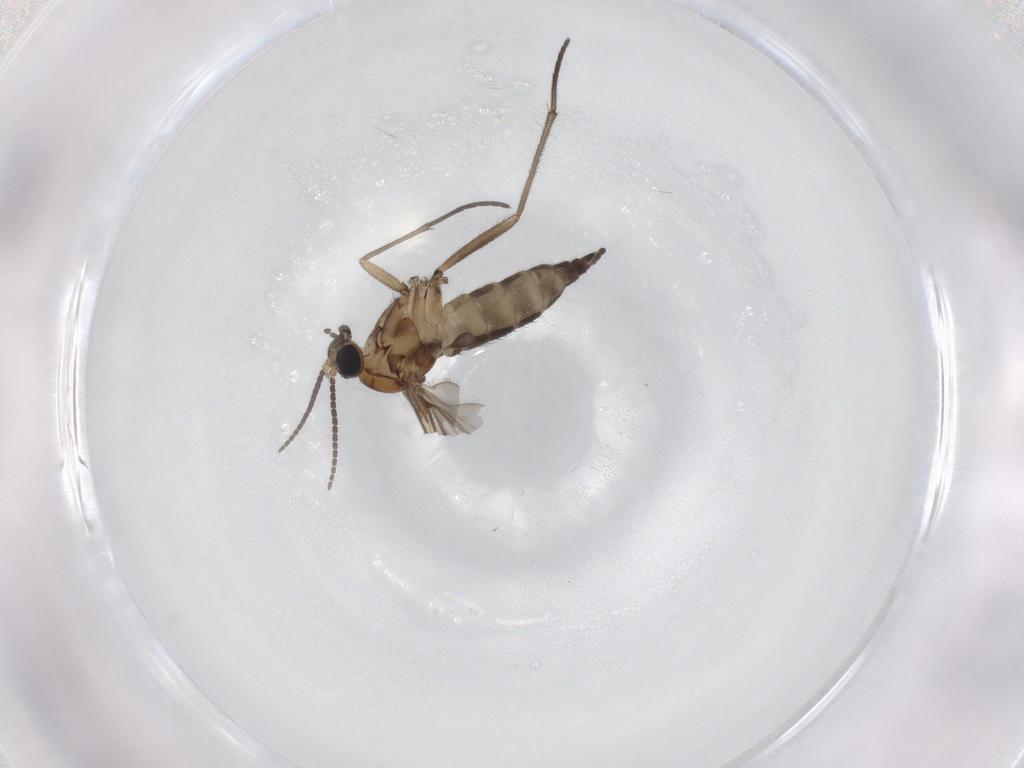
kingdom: Animalia
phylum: Arthropoda
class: Insecta
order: Diptera
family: Sciaridae
